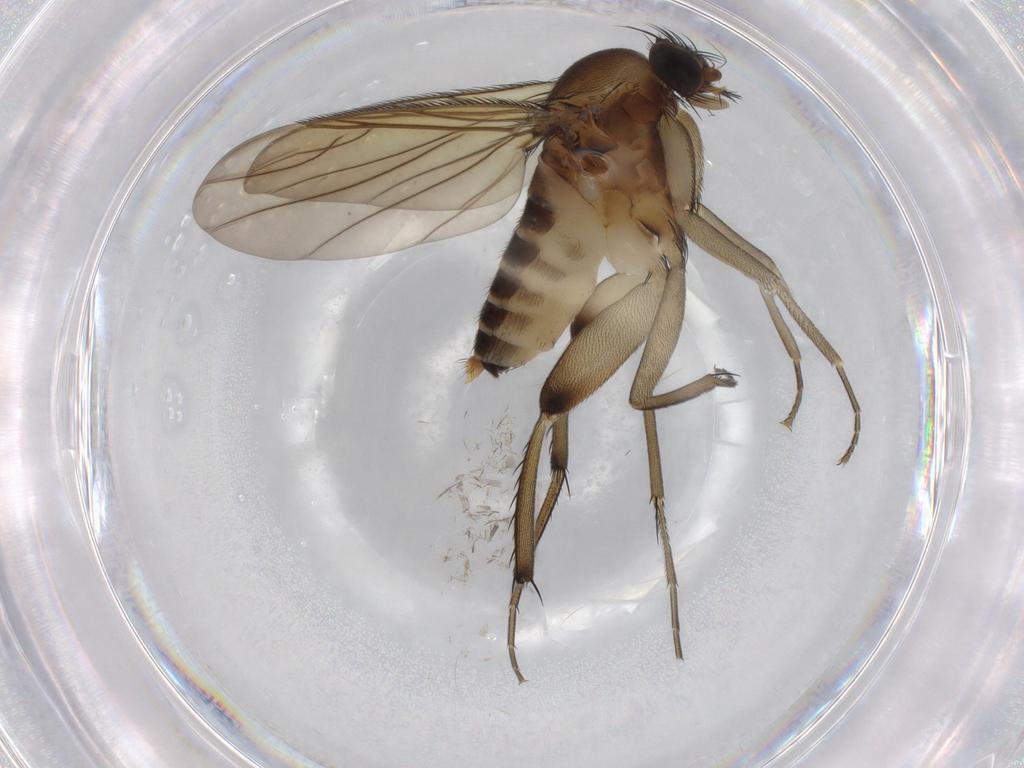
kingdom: Animalia
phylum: Arthropoda
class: Insecta
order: Diptera
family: Phoridae
